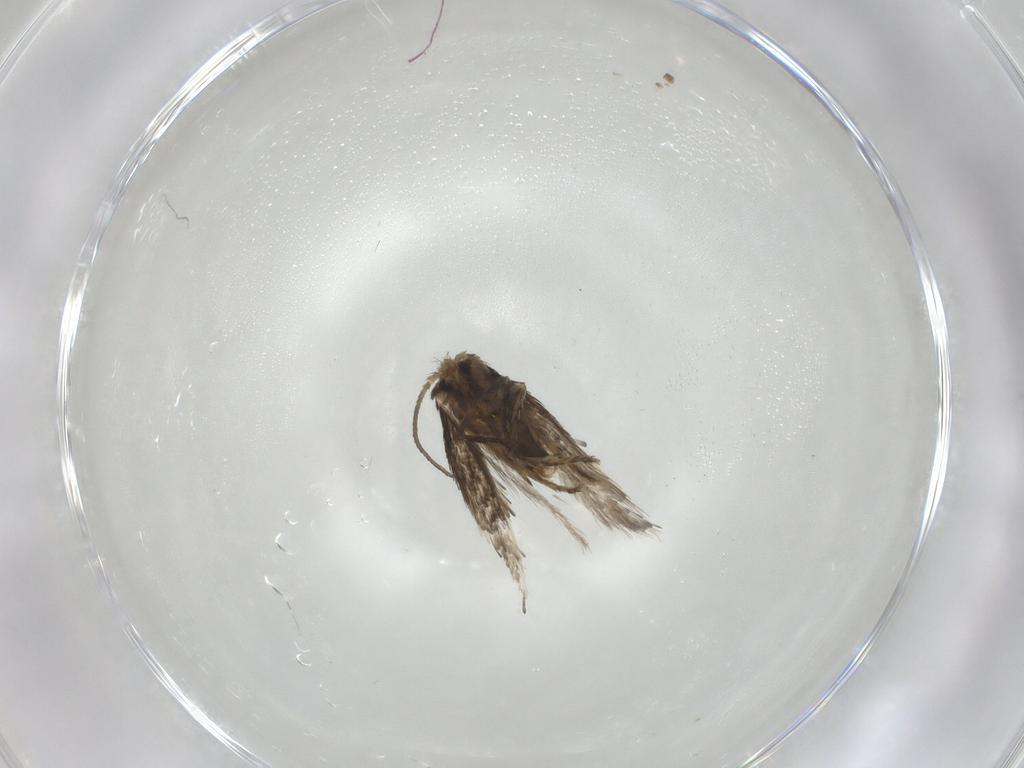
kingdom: Animalia
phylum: Arthropoda
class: Insecta
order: Lepidoptera
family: Nepticulidae
